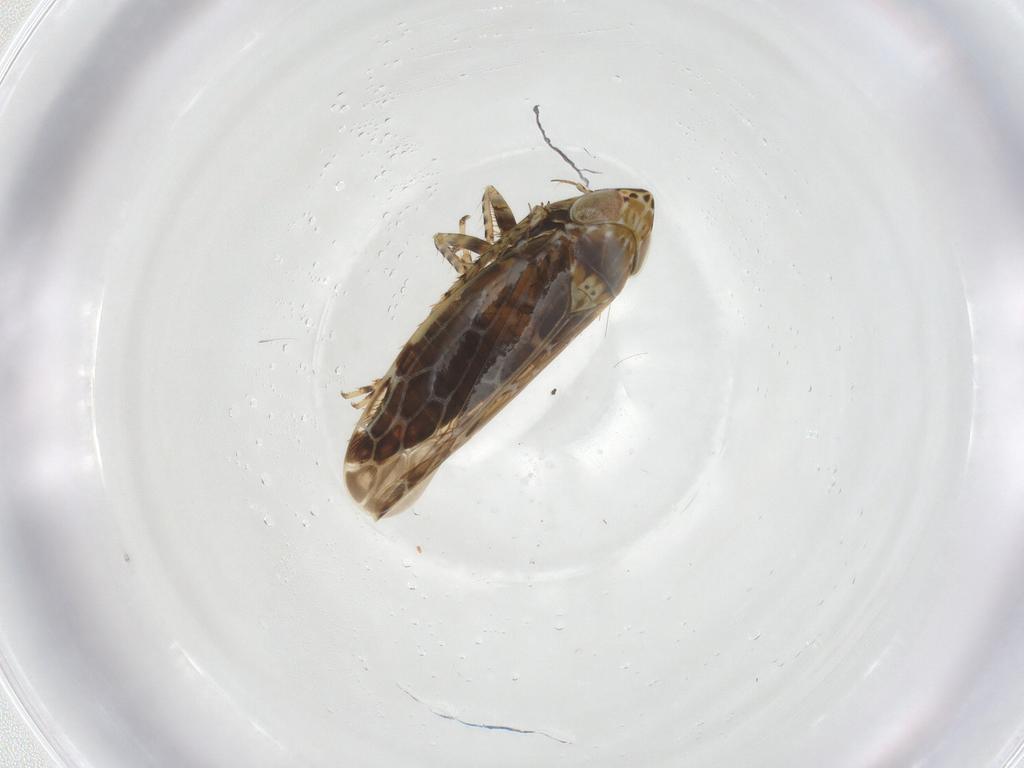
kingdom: Animalia
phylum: Arthropoda
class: Insecta
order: Hemiptera
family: Cicadellidae
